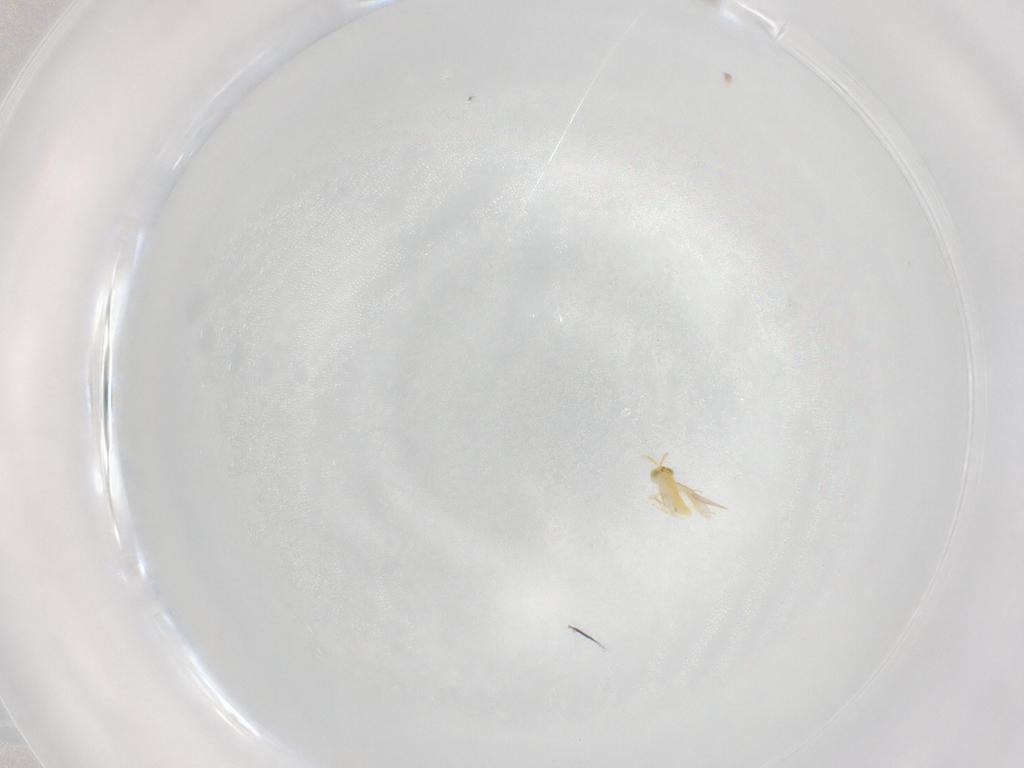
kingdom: Animalia
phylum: Arthropoda
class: Insecta
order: Hymenoptera
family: Aphelinidae
